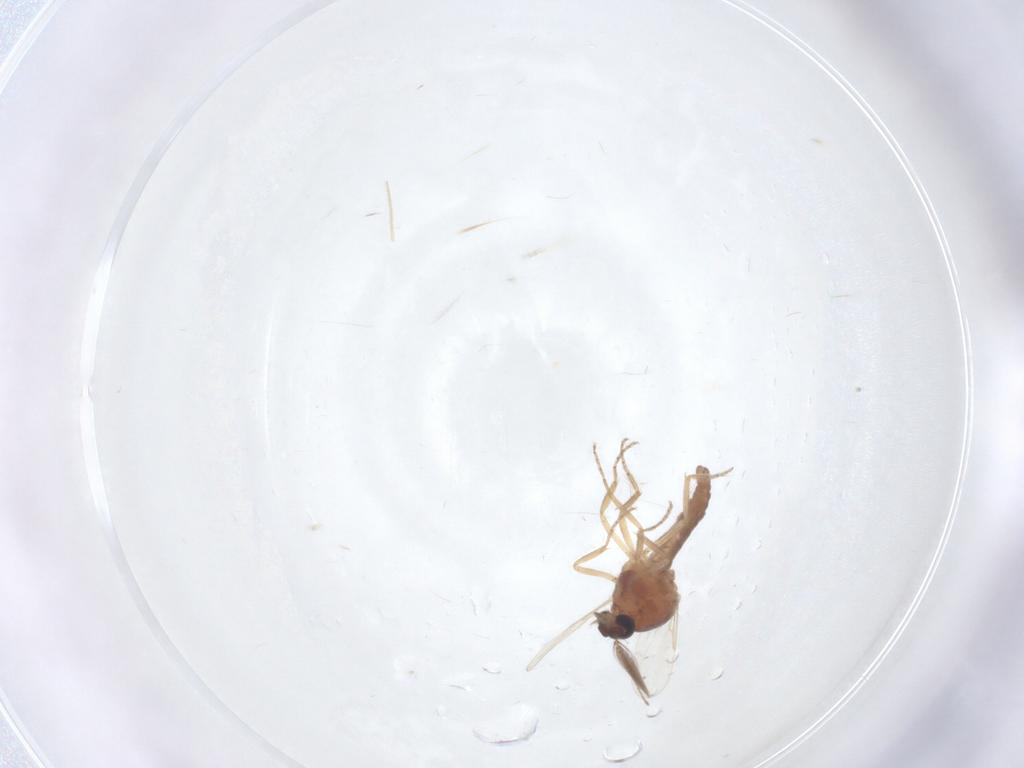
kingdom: Animalia
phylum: Arthropoda
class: Insecta
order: Diptera
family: Ceratopogonidae
